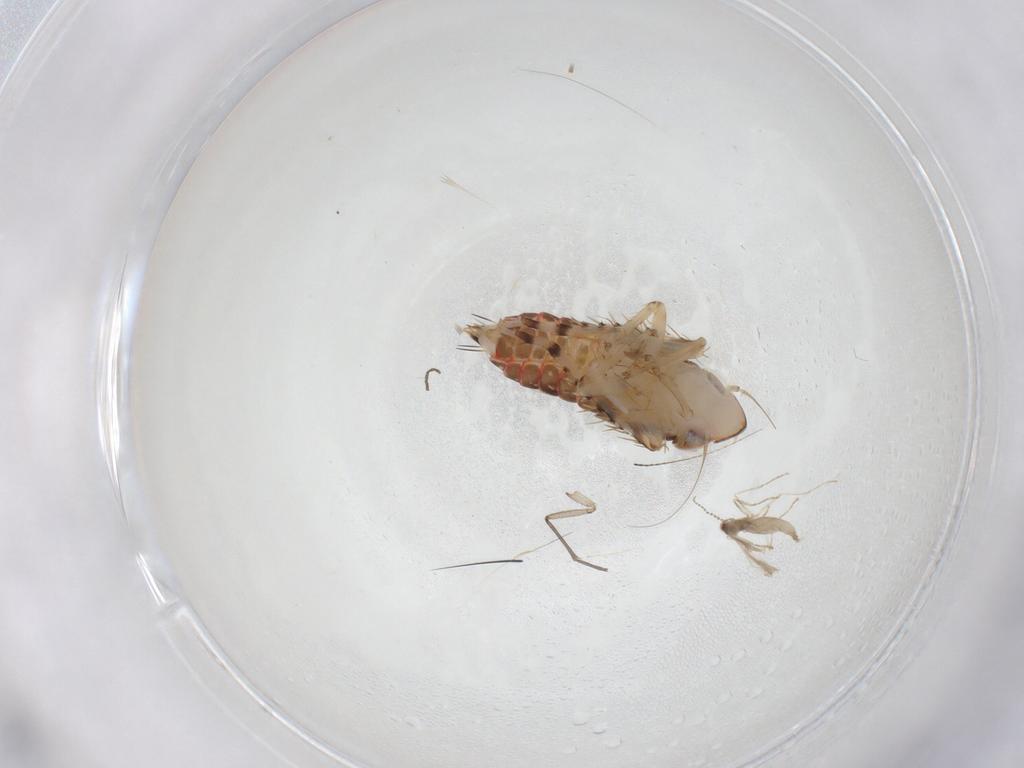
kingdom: Animalia
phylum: Arthropoda
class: Insecta
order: Hemiptera
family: Cicadellidae
